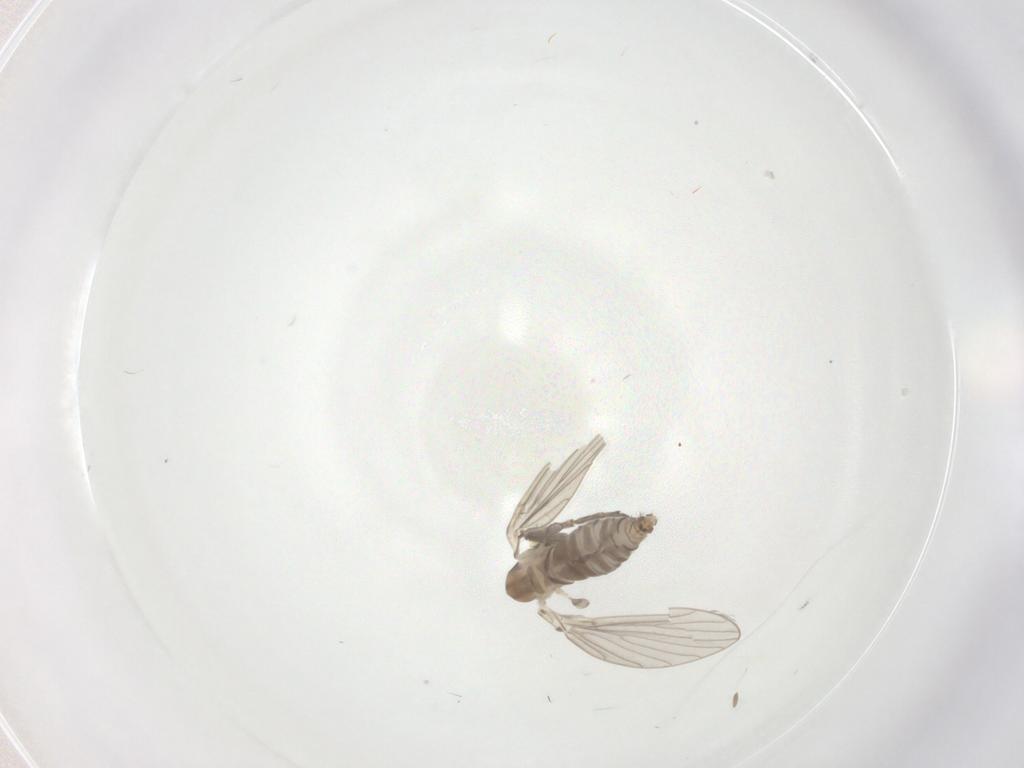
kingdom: Animalia
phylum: Arthropoda
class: Insecta
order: Diptera
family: Psychodidae
